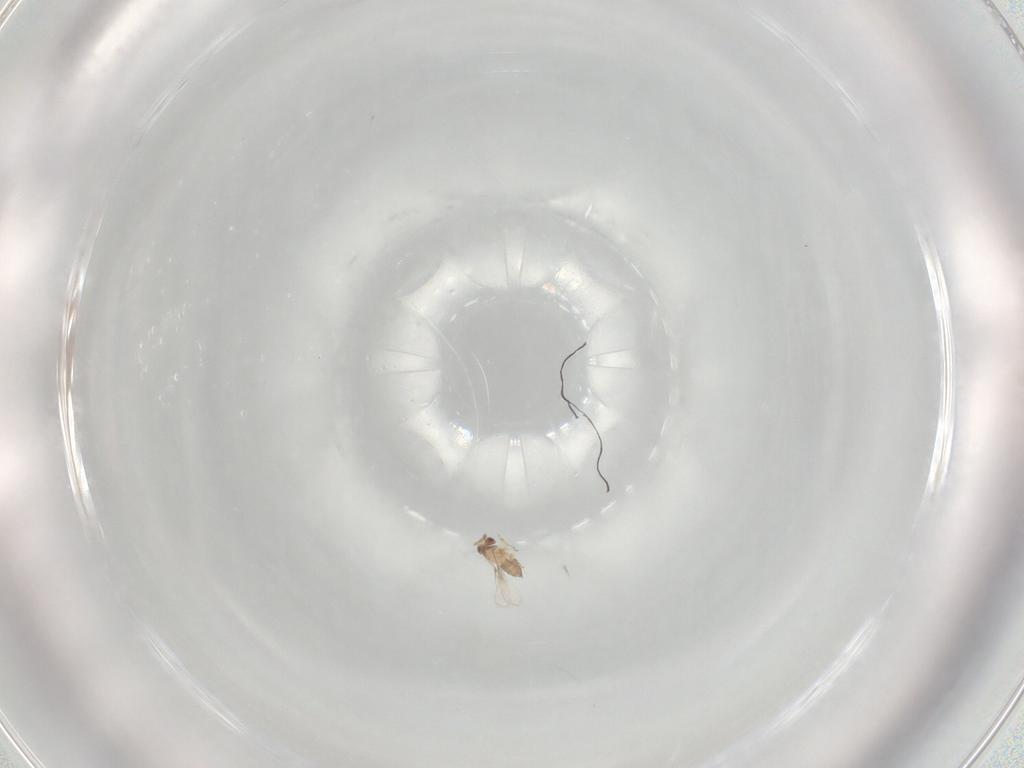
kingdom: Animalia
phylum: Arthropoda
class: Insecta
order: Hymenoptera
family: Trichogrammatidae
